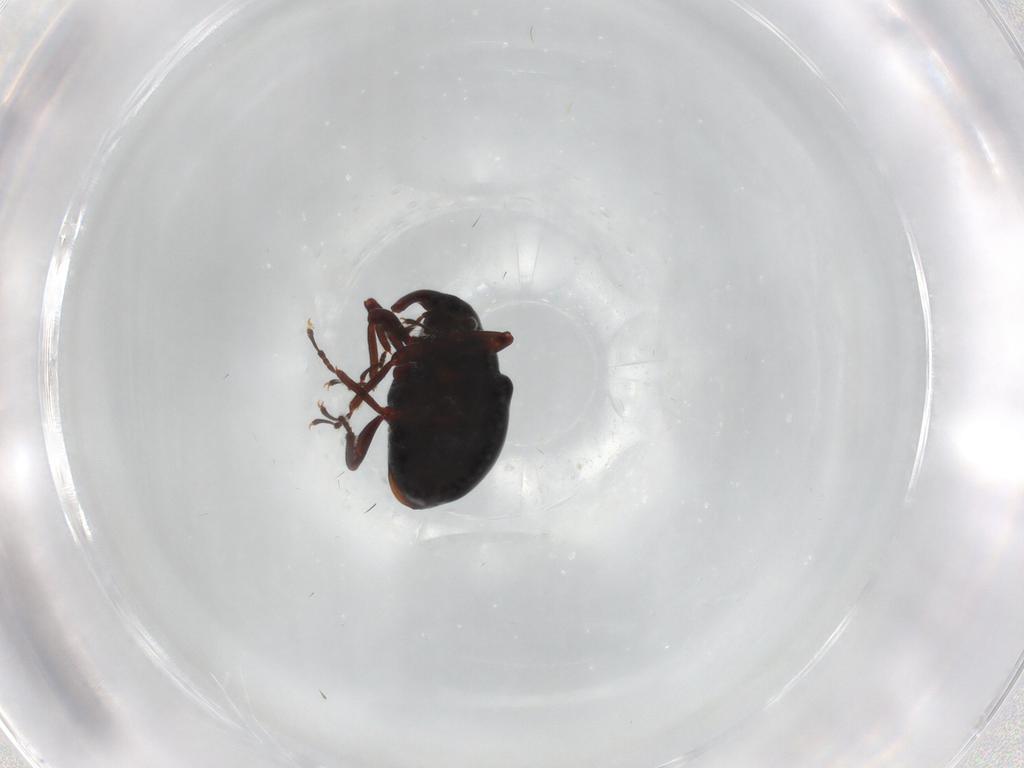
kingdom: Animalia
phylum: Arthropoda
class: Insecta
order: Coleoptera
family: Curculionidae
